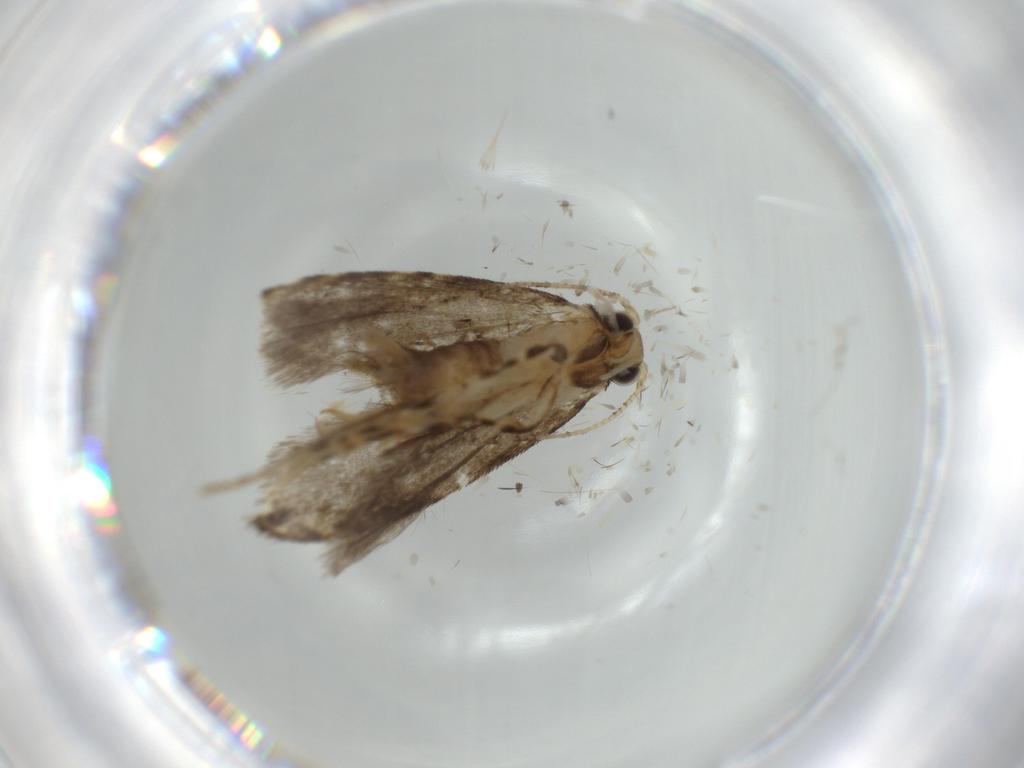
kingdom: Animalia
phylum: Arthropoda
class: Insecta
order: Lepidoptera
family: Tineidae
